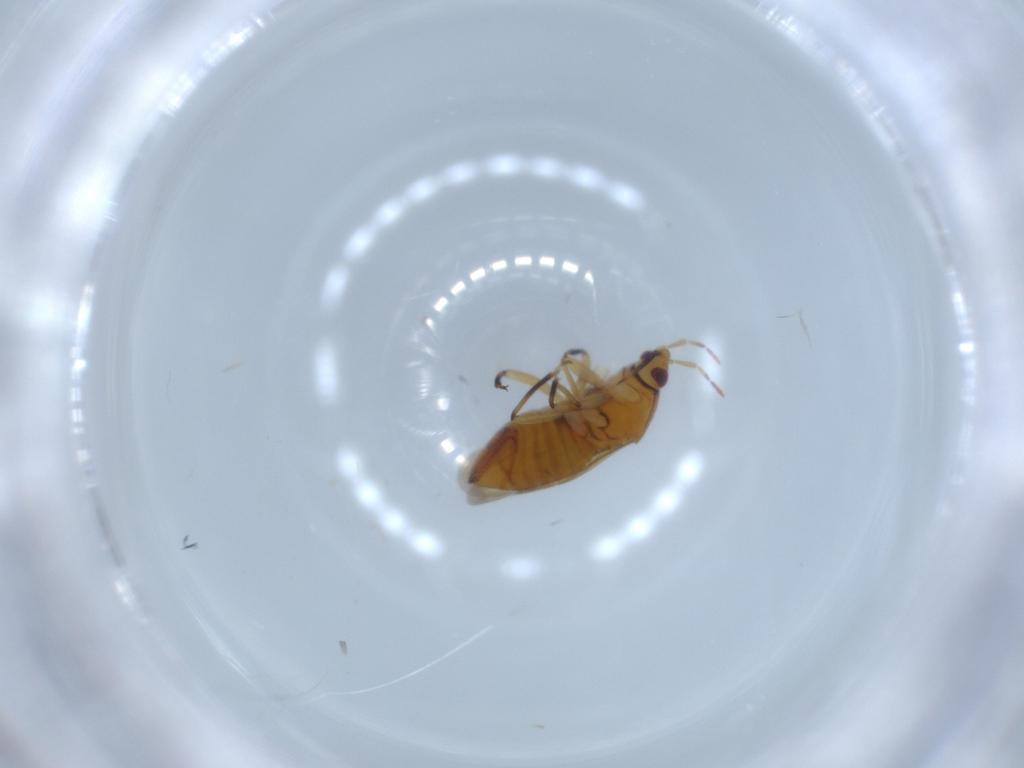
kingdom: Animalia
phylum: Arthropoda
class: Insecta
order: Hemiptera
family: Anthocoridae
